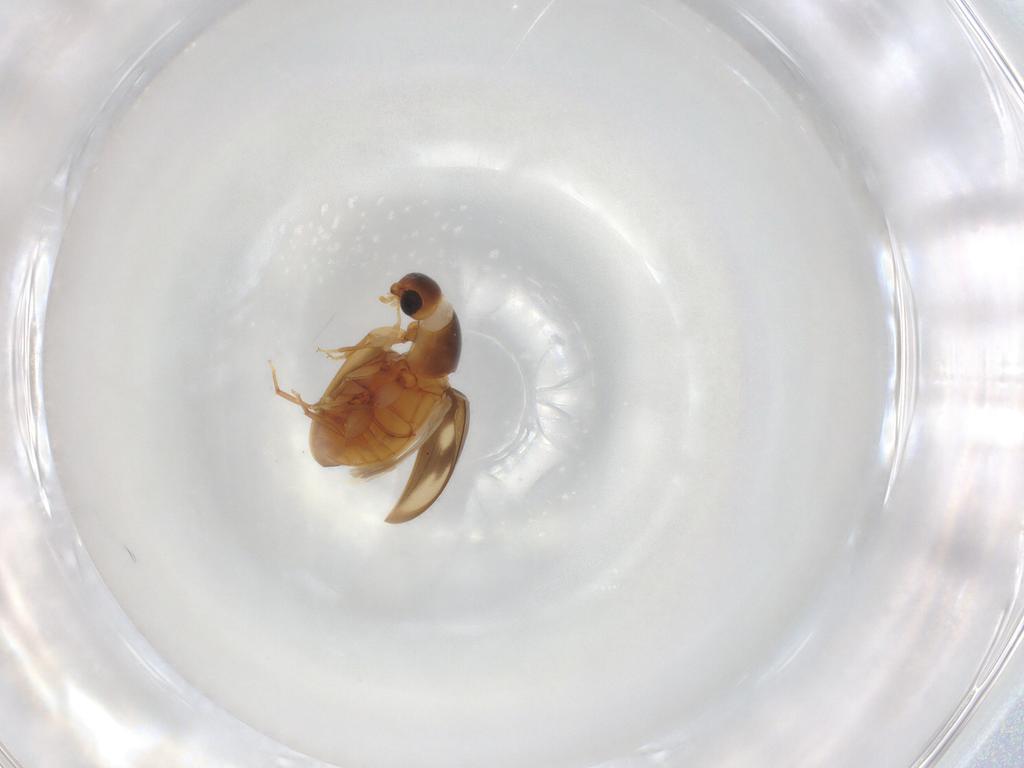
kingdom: Animalia
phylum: Arthropoda
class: Insecta
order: Coleoptera
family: Phalacridae
